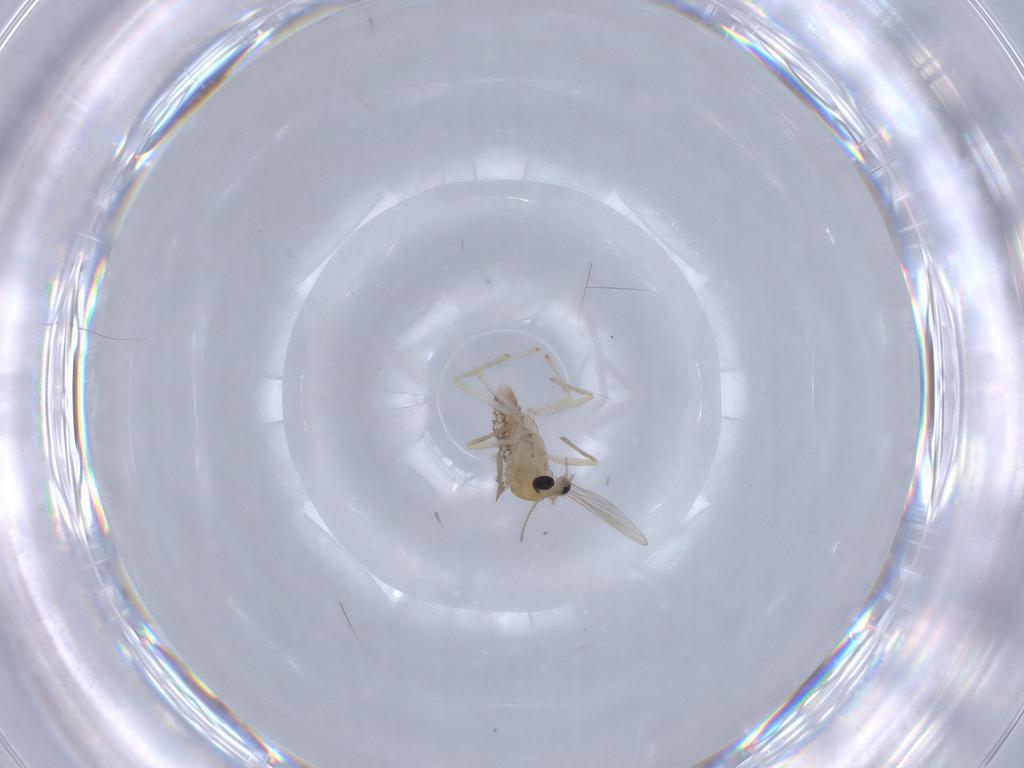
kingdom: Animalia
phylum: Arthropoda
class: Insecta
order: Diptera
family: Chironomidae
